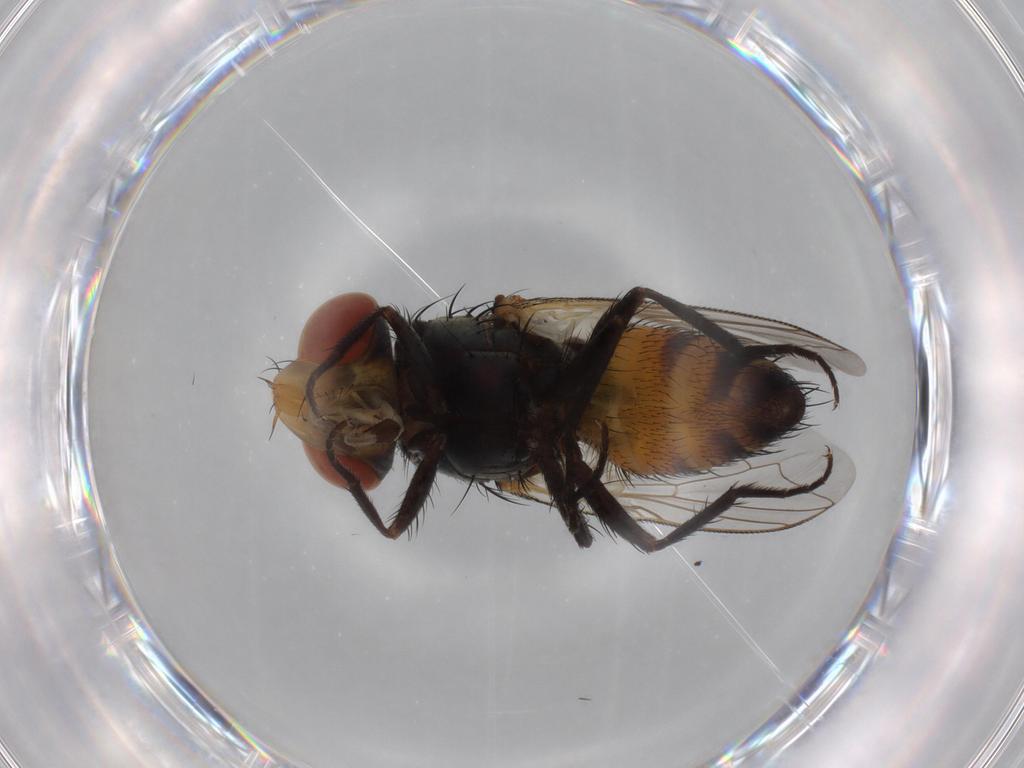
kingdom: Animalia
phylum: Arthropoda
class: Insecta
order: Diptera
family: Sarcophagidae
